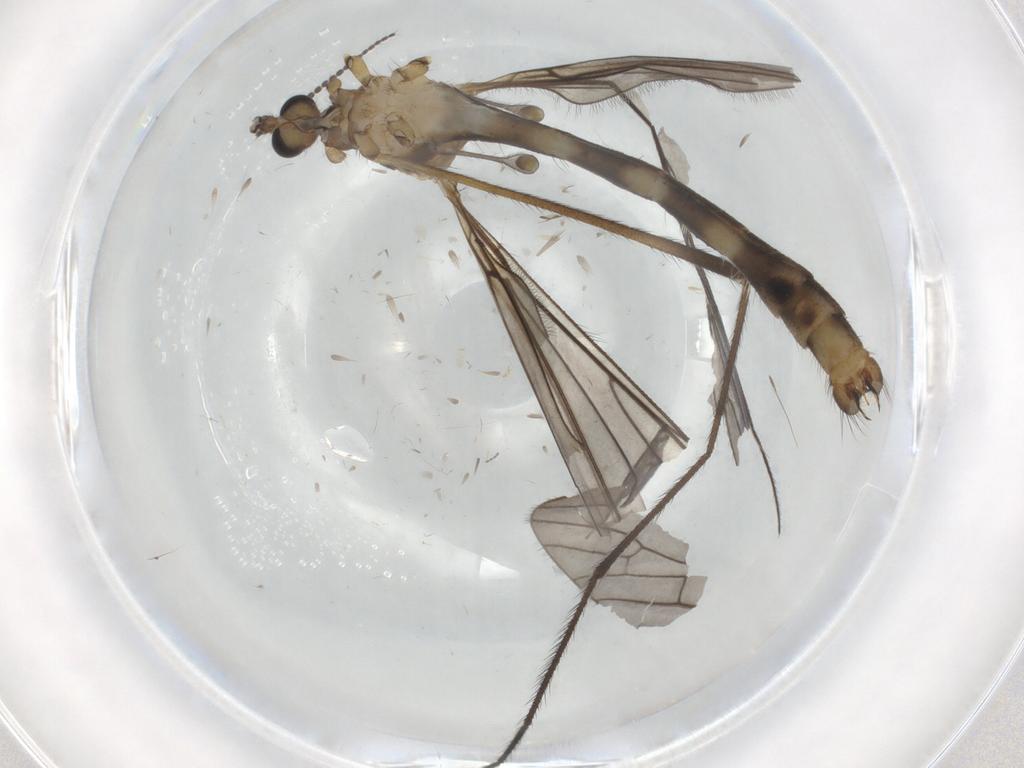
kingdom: Animalia
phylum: Arthropoda
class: Insecta
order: Diptera
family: Limoniidae
